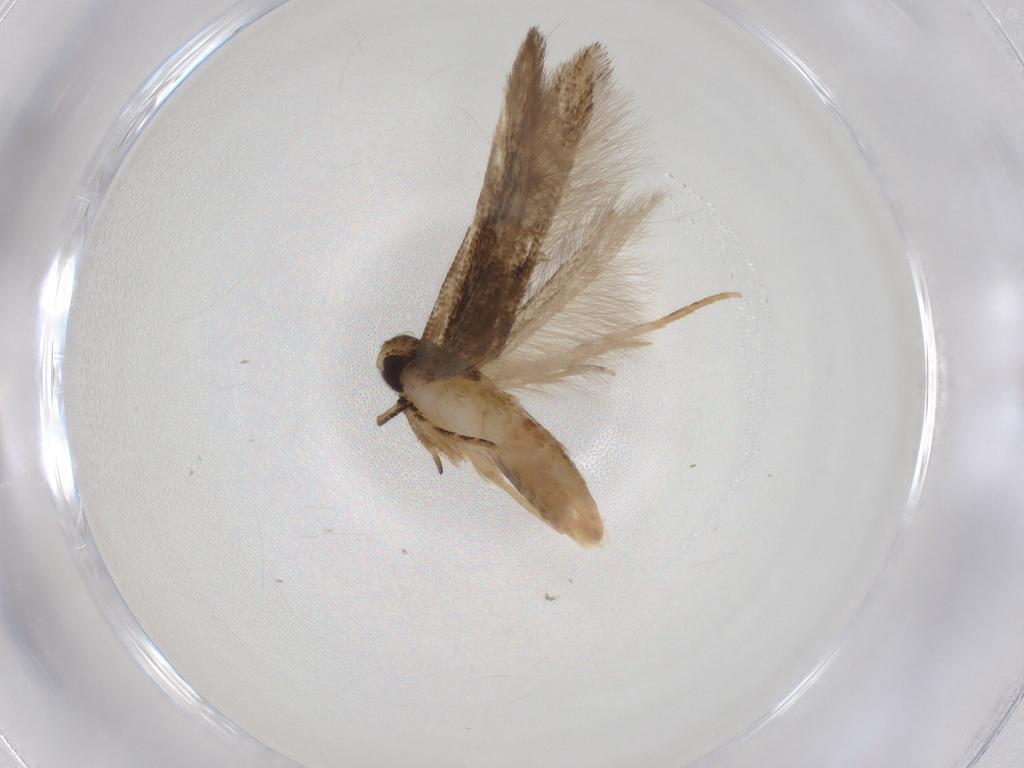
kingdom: Animalia
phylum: Arthropoda
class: Insecta
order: Lepidoptera
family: Cosmopterigidae
